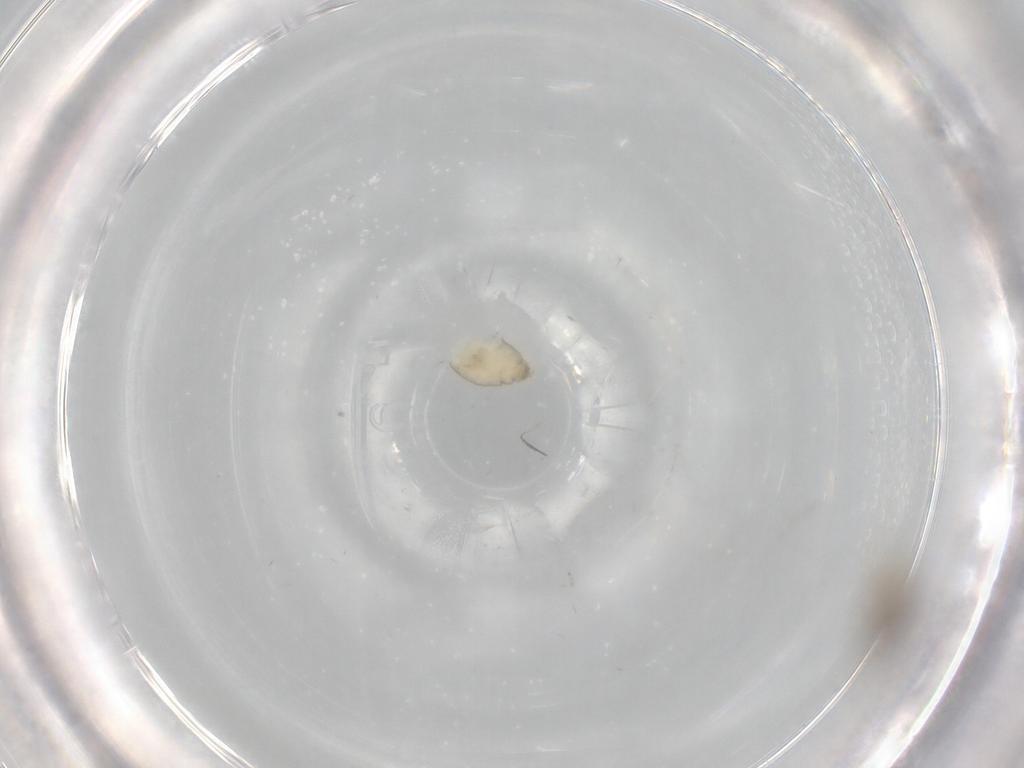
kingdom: Animalia
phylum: Arthropoda
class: Insecta
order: Diptera
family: Cecidomyiidae
